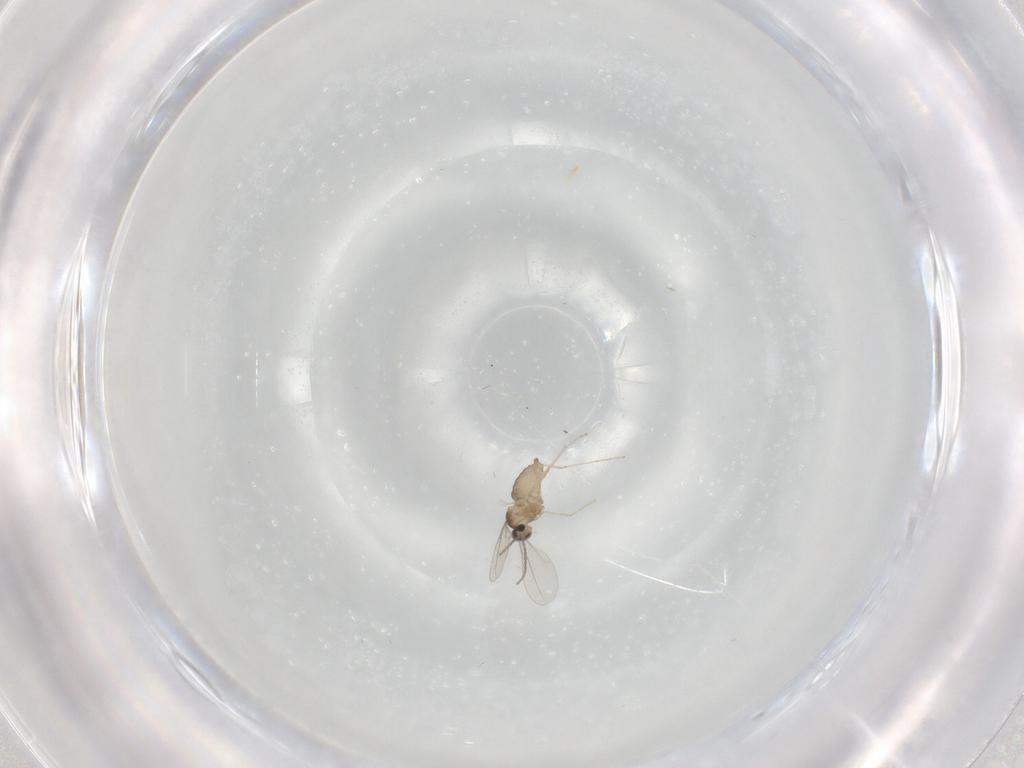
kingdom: Animalia
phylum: Arthropoda
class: Insecta
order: Diptera
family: Cecidomyiidae
